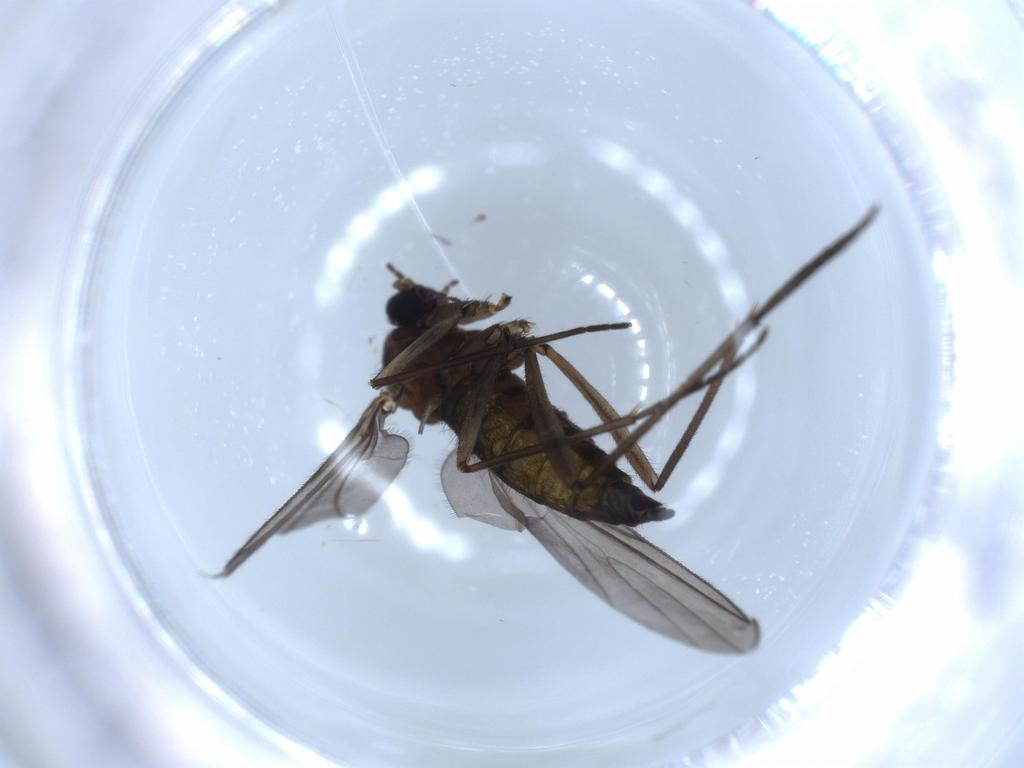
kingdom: Animalia
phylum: Arthropoda
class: Insecta
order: Diptera
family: Sciaridae
